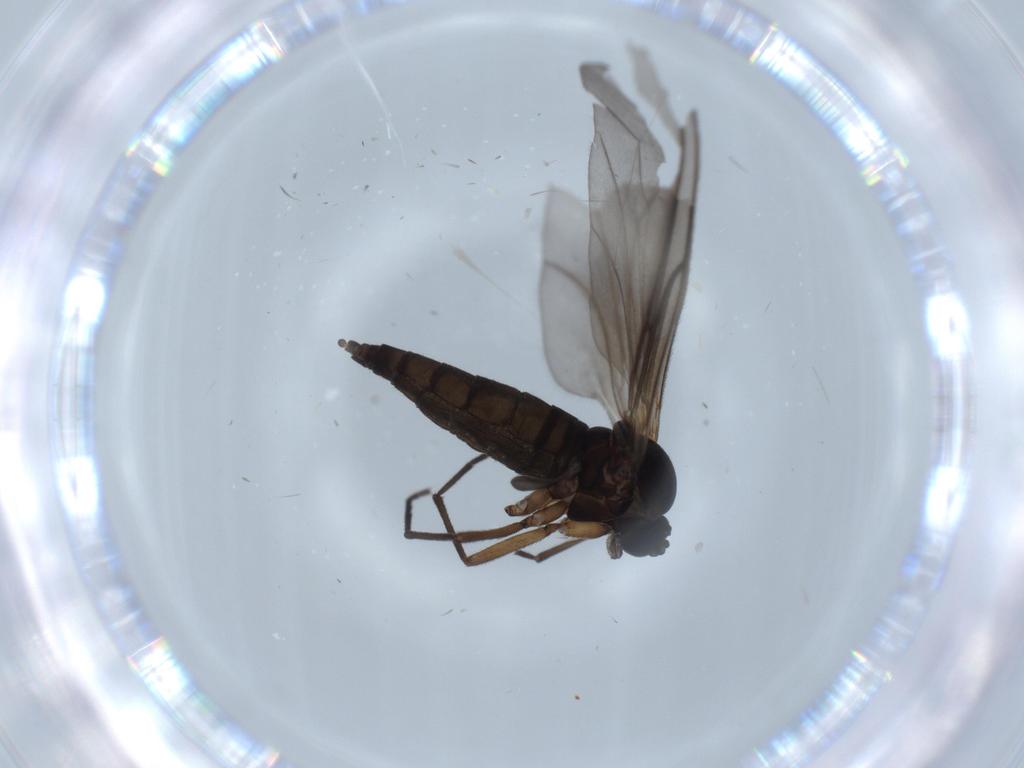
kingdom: Animalia
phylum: Arthropoda
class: Insecta
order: Diptera
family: Sciaridae
